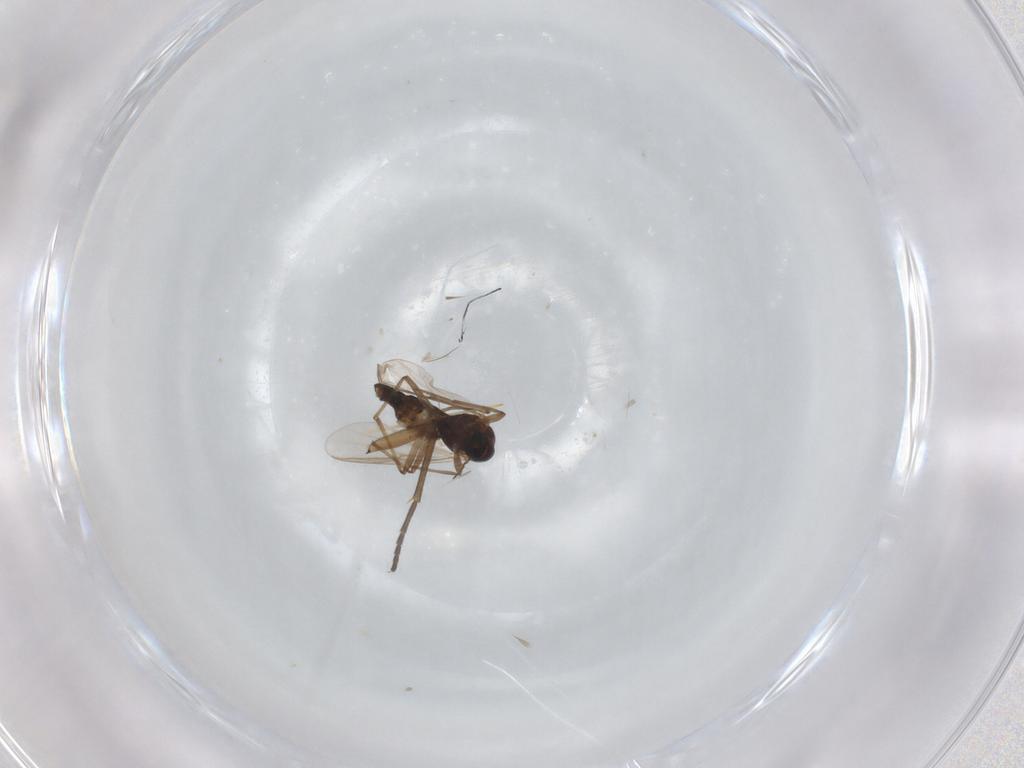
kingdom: Animalia
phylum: Arthropoda
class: Insecta
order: Diptera
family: Chironomidae
